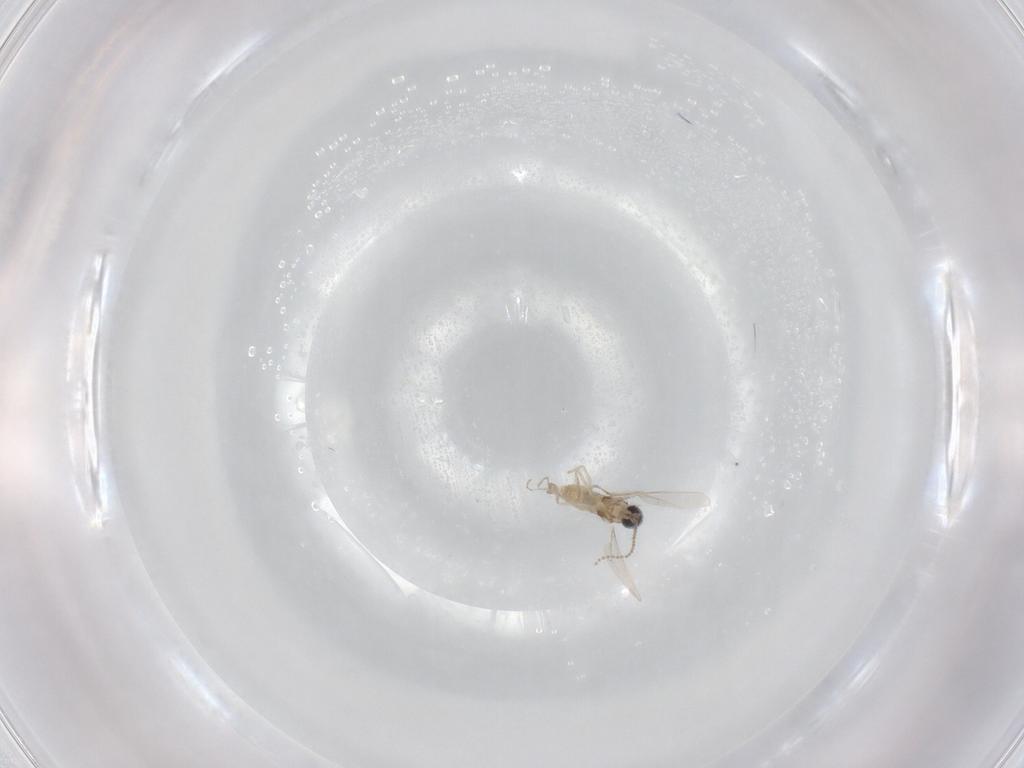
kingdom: Animalia
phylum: Arthropoda
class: Insecta
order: Diptera
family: Cecidomyiidae
